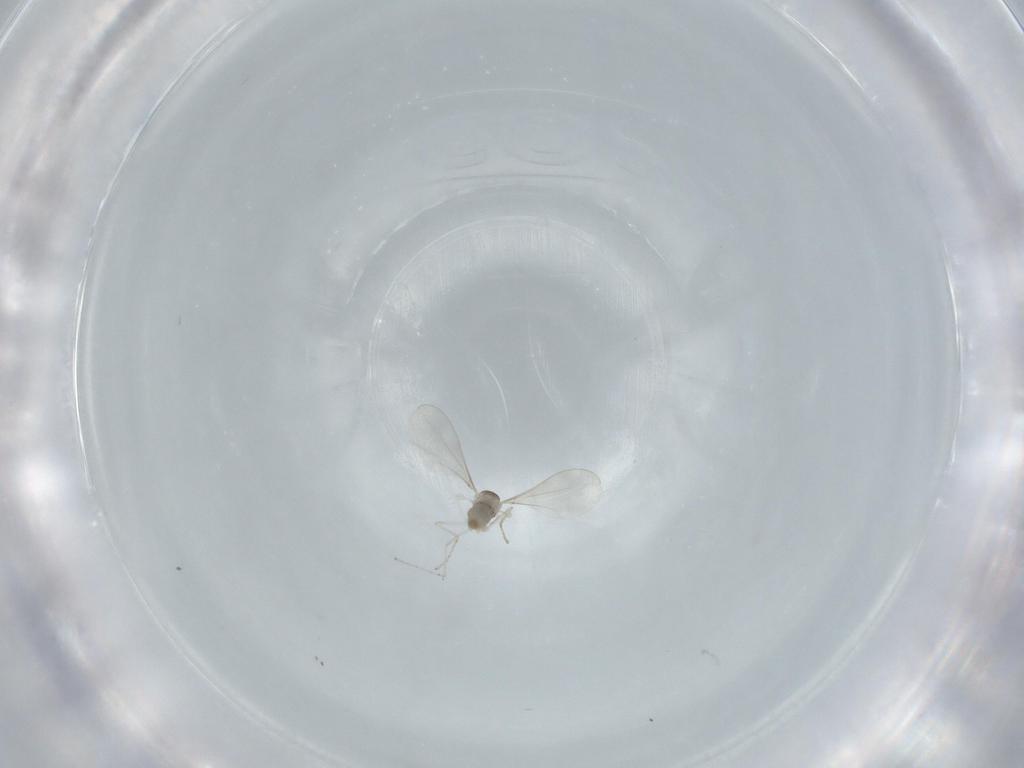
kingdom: Animalia
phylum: Arthropoda
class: Insecta
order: Diptera
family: Cecidomyiidae
